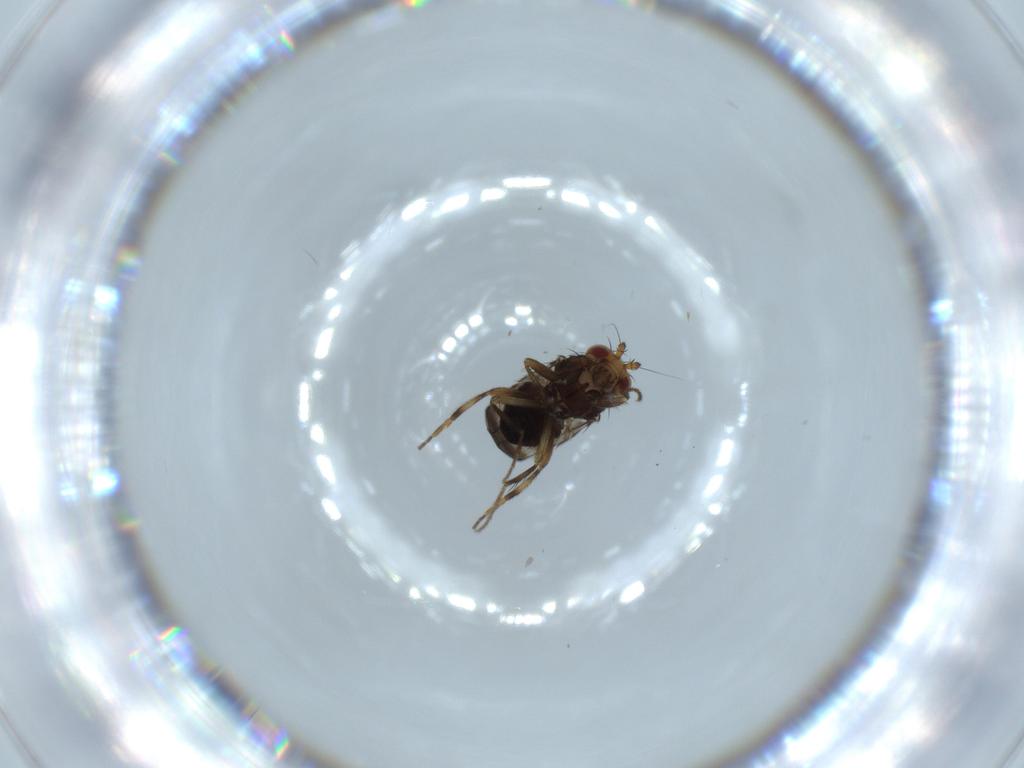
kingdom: Animalia
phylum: Arthropoda
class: Insecta
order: Diptera
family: Sphaeroceridae
